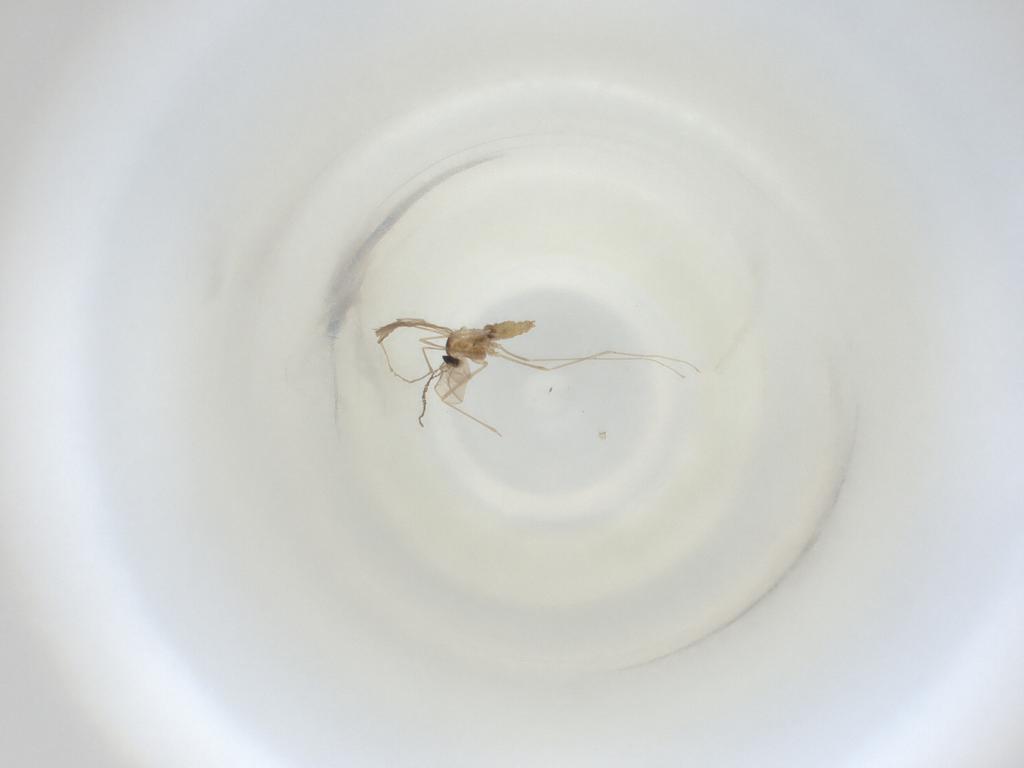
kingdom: Animalia
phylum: Arthropoda
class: Insecta
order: Diptera
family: Cecidomyiidae
